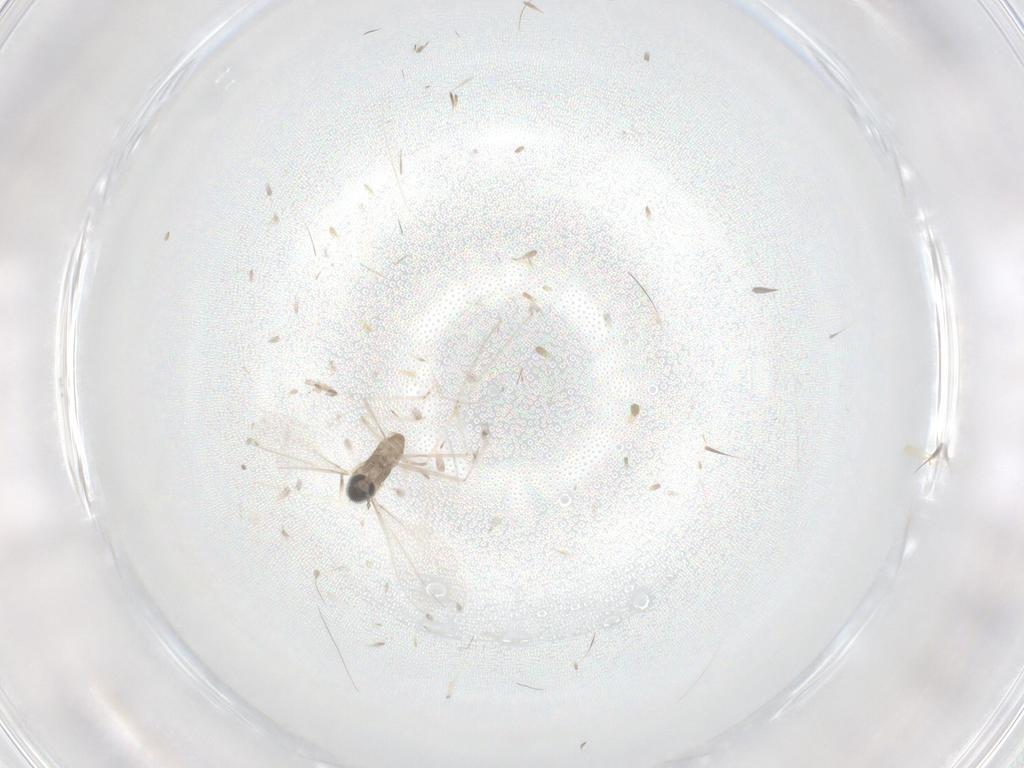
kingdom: Animalia
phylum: Arthropoda
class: Insecta
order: Diptera
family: Cecidomyiidae
